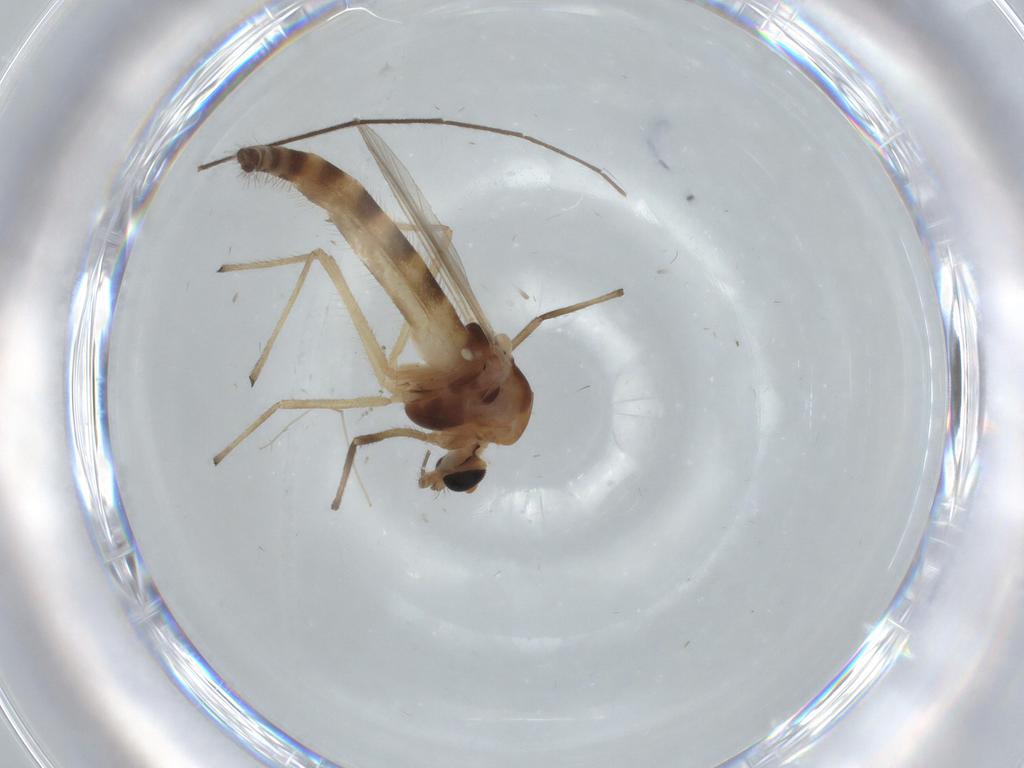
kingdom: Animalia
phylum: Arthropoda
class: Insecta
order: Diptera
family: Chironomidae
